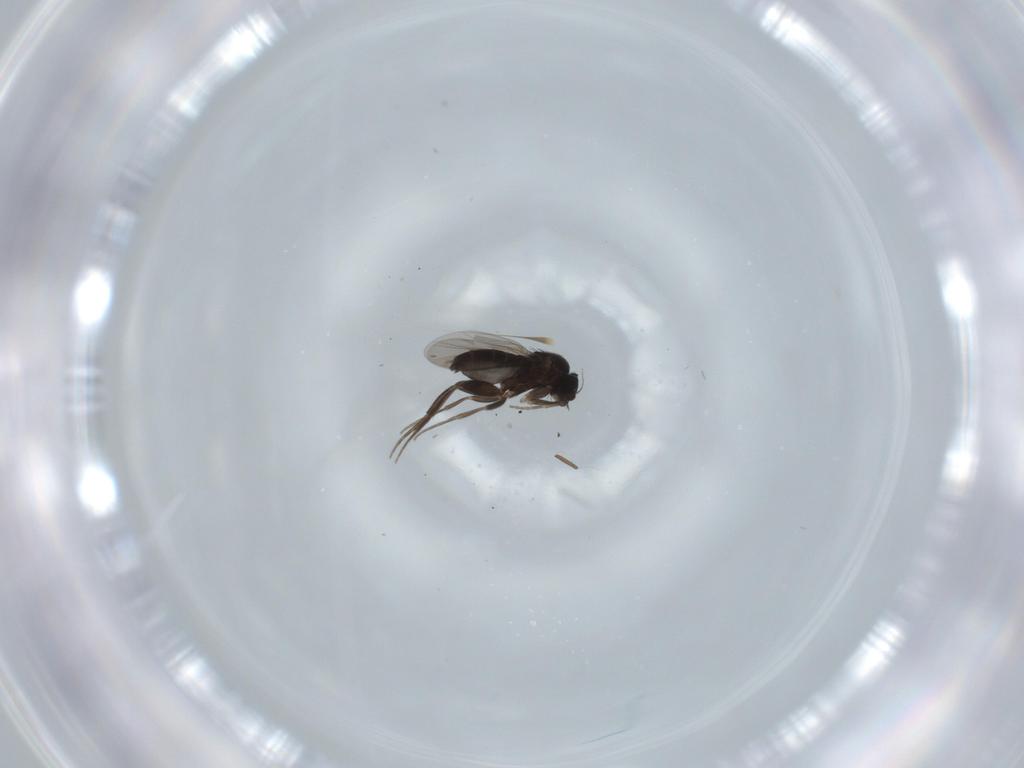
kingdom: Animalia
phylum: Arthropoda
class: Insecta
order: Diptera
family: Phoridae
